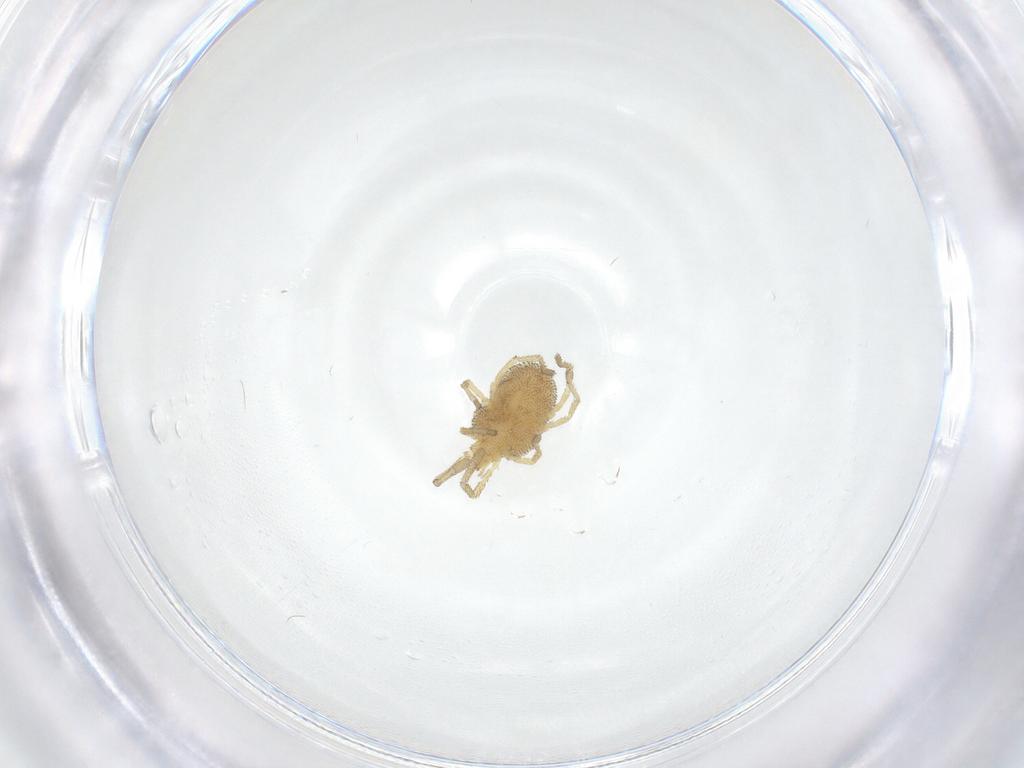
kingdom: Animalia
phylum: Arthropoda
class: Arachnida
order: Trombidiformes
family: Smarididae
